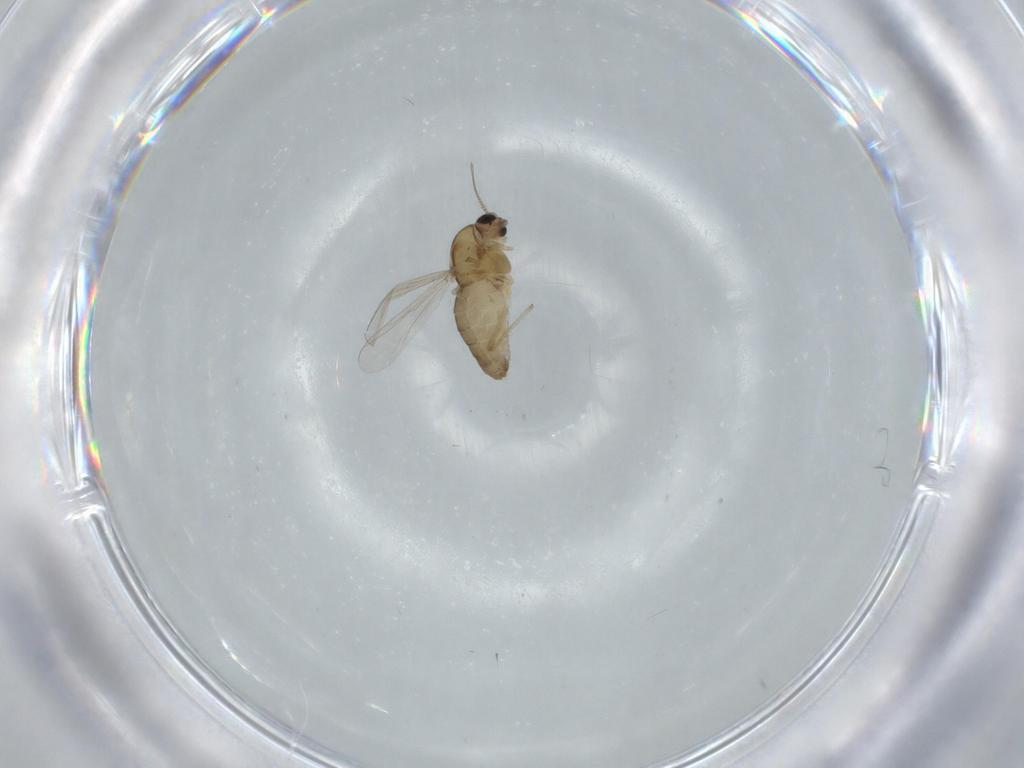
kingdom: Animalia
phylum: Arthropoda
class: Insecta
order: Diptera
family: Chironomidae
